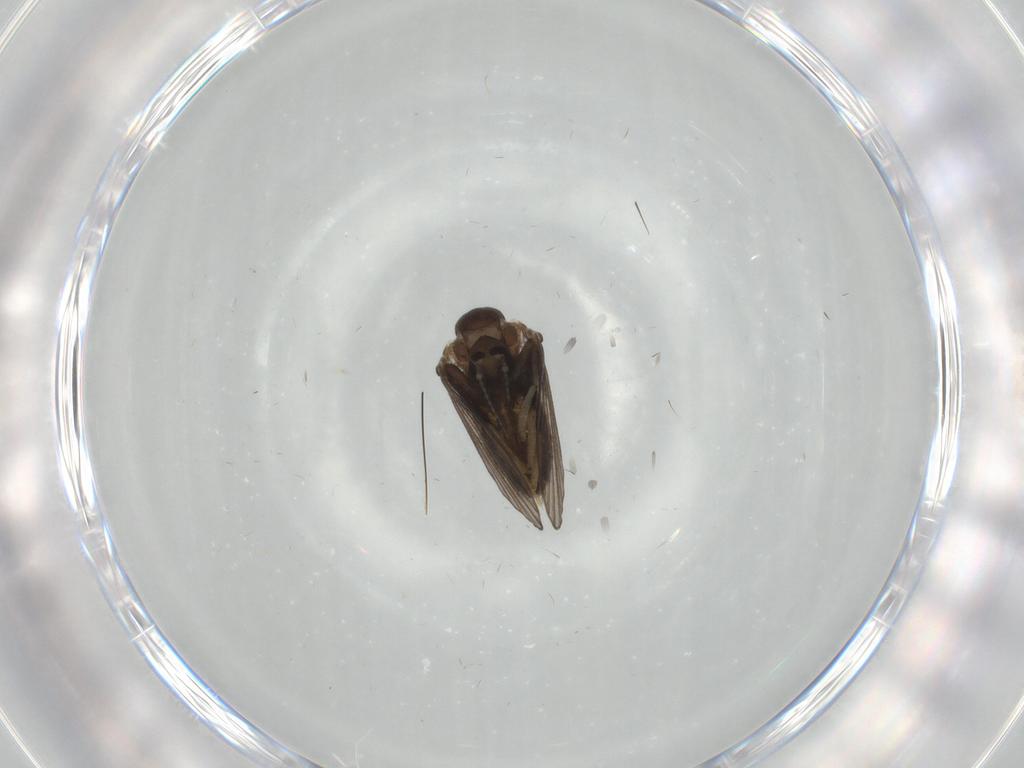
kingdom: Animalia
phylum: Arthropoda
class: Insecta
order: Diptera
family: Psychodidae
